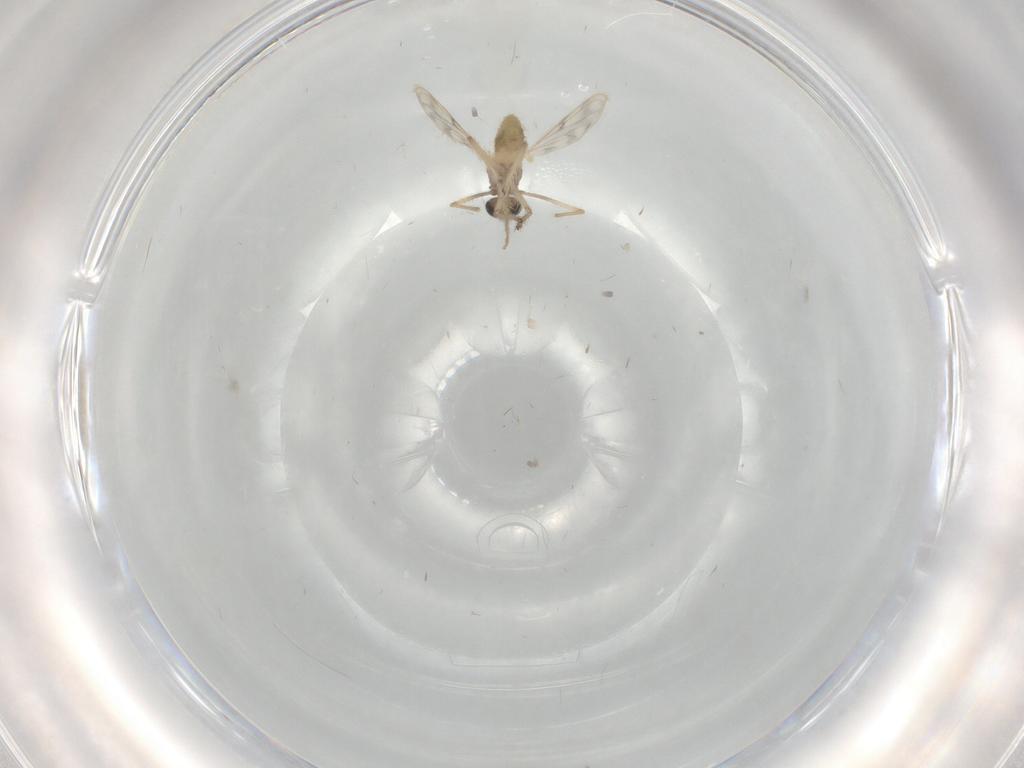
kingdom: Animalia
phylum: Arthropoda
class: Insecta
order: Diptera
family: Chironomidae
